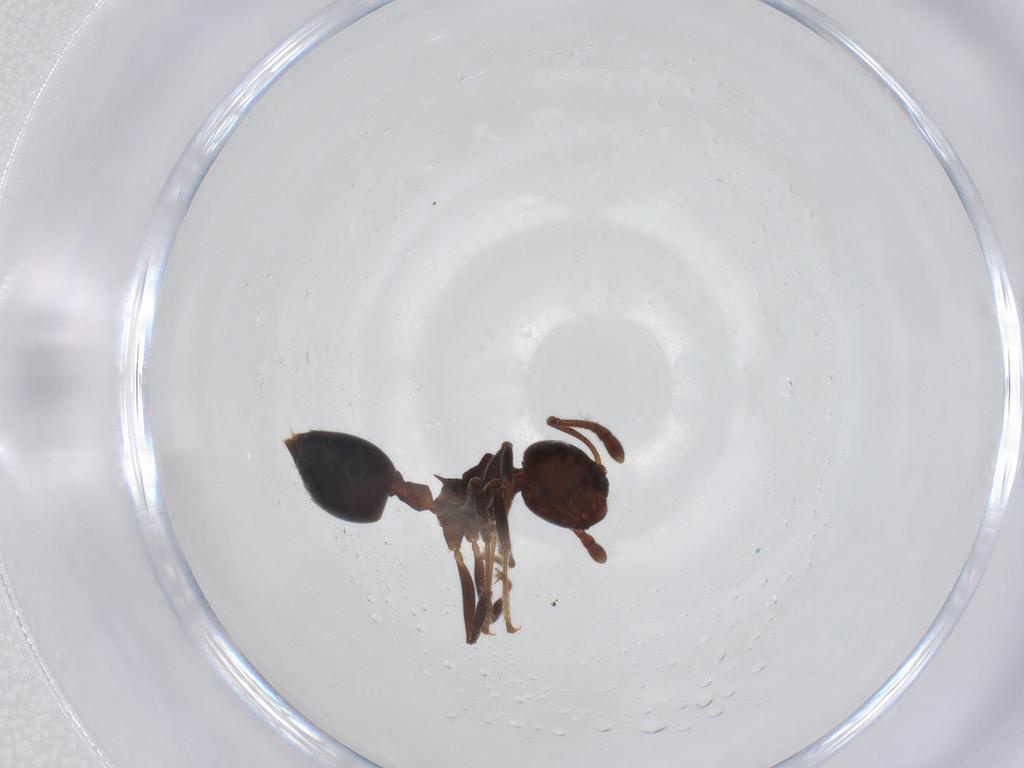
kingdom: Animalia
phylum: Arthropoda
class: Insecta
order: Hymenoptera
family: Formicidae
